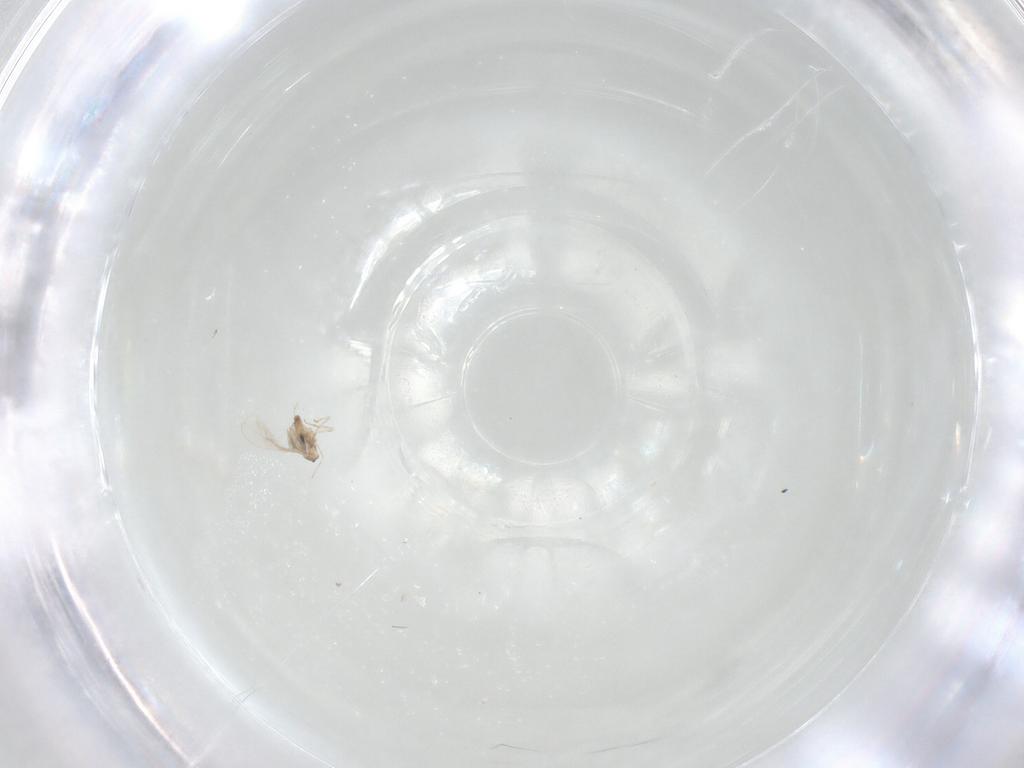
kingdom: Animalia
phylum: Arthropoda
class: Insecta
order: Diptera
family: Cecidomyiidae
